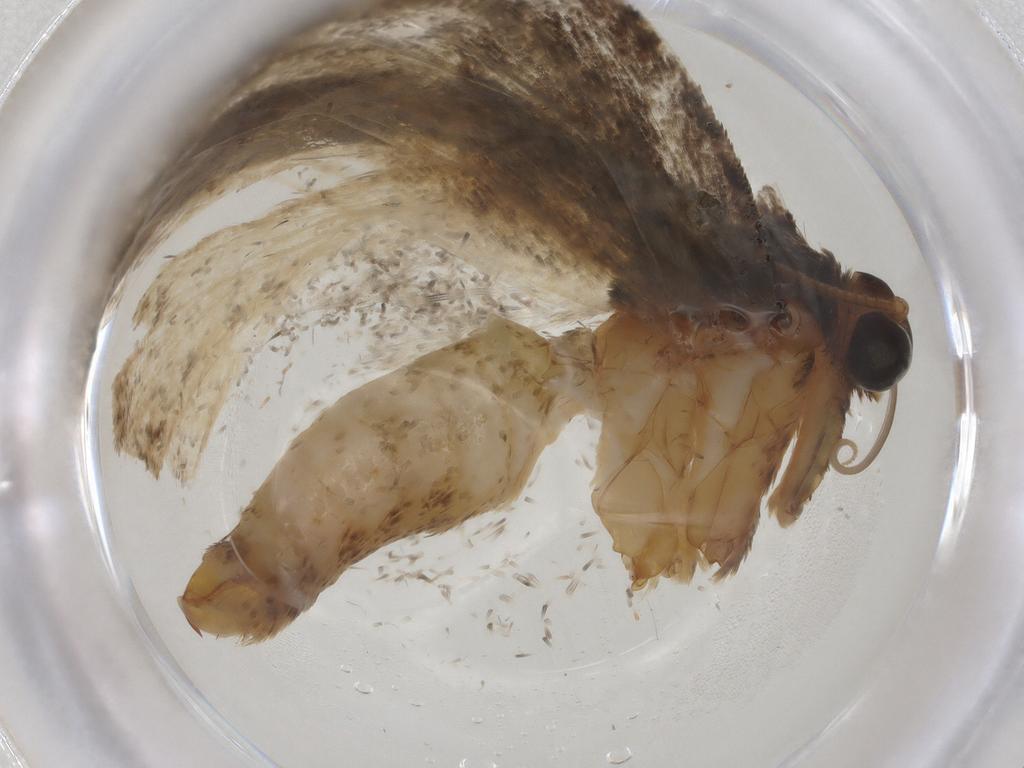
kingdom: Animalia
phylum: Arthropoda
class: Insecta
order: Lepidoptera
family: Tortricidae
